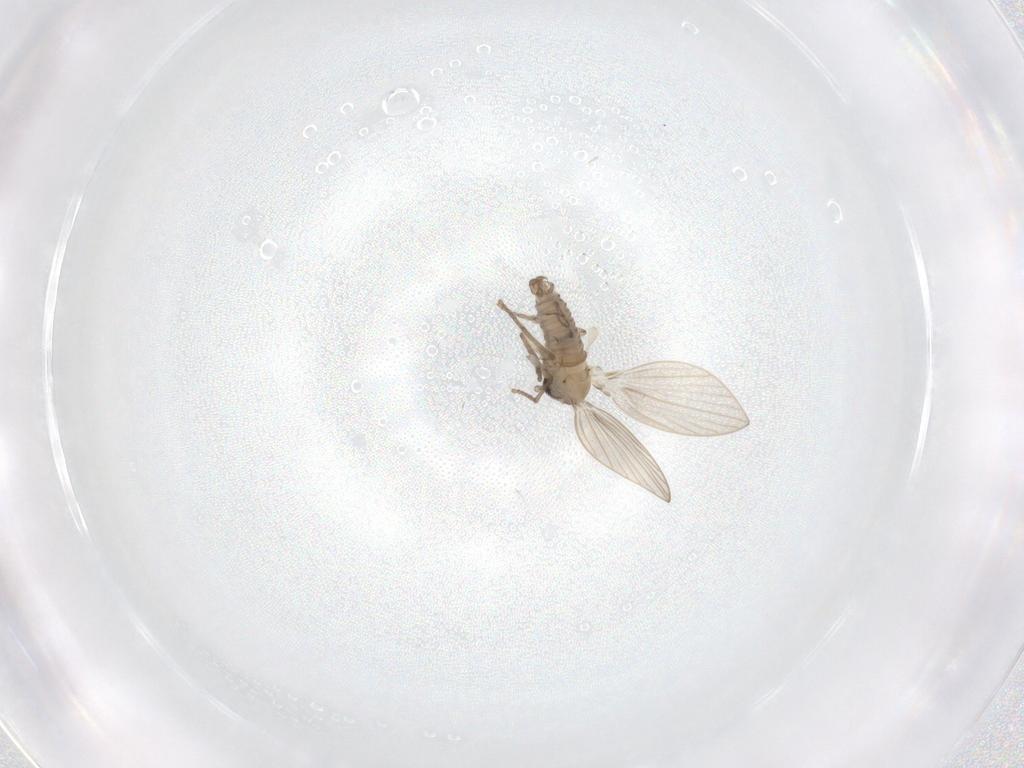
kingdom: Animalia
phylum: Arthropoda
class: Insecta
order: Diptera
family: Psychodidae
